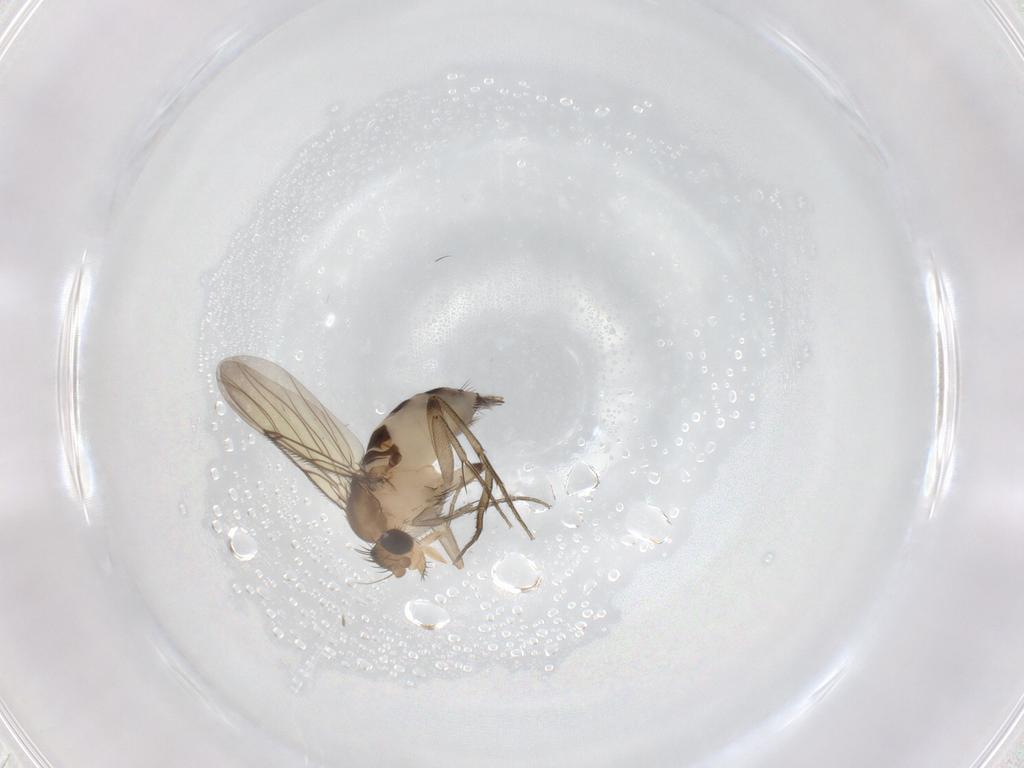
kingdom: Animalia
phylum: Arthropoda
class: Insecta
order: Diptera
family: Phoridae
